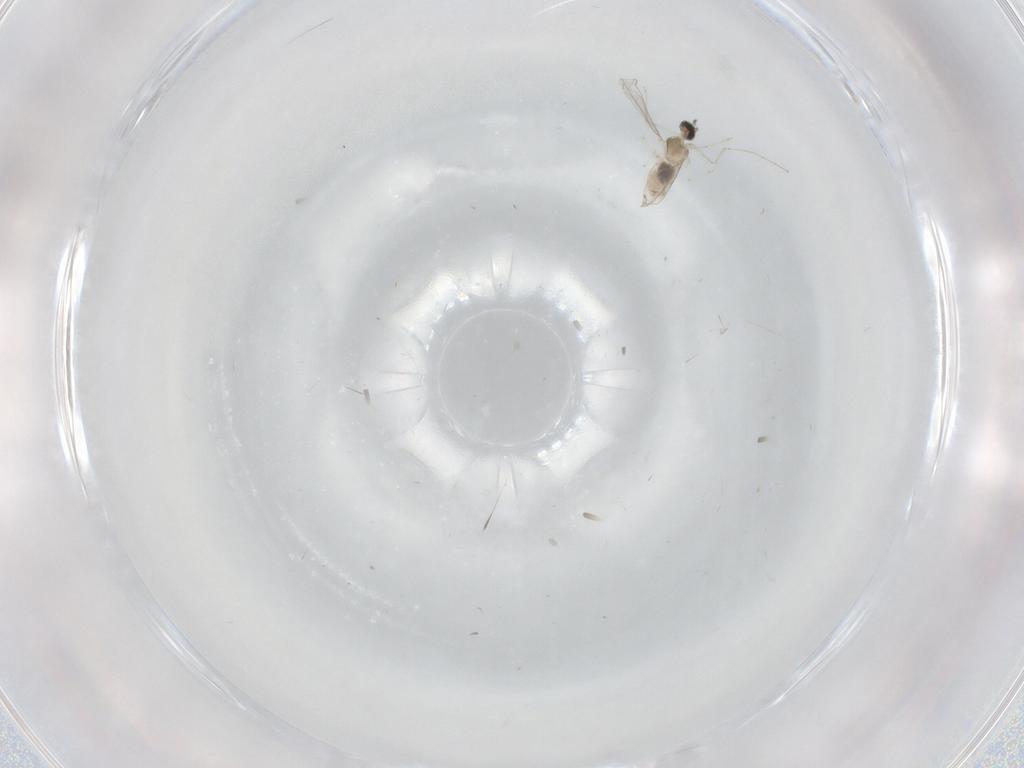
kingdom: Animalia
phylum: Arthropoda
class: Insecta
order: Diptera
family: Cecidomyiidae
